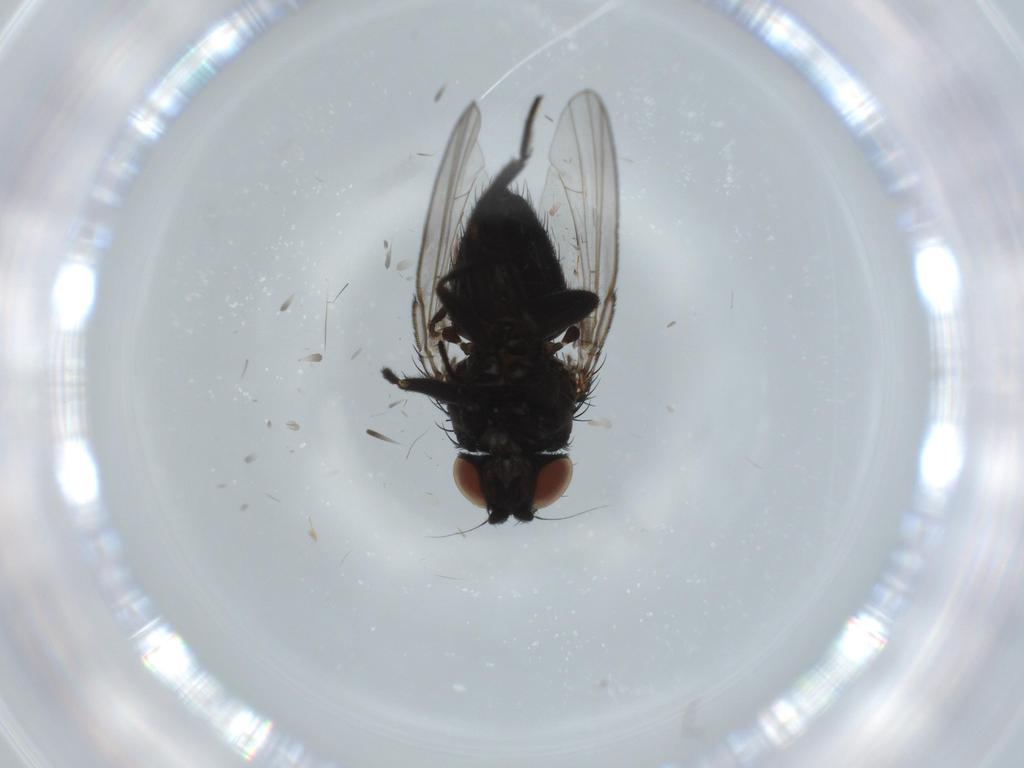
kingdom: Animalia
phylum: Arthropoda
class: Insecta
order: Diptera
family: Milichiidae
